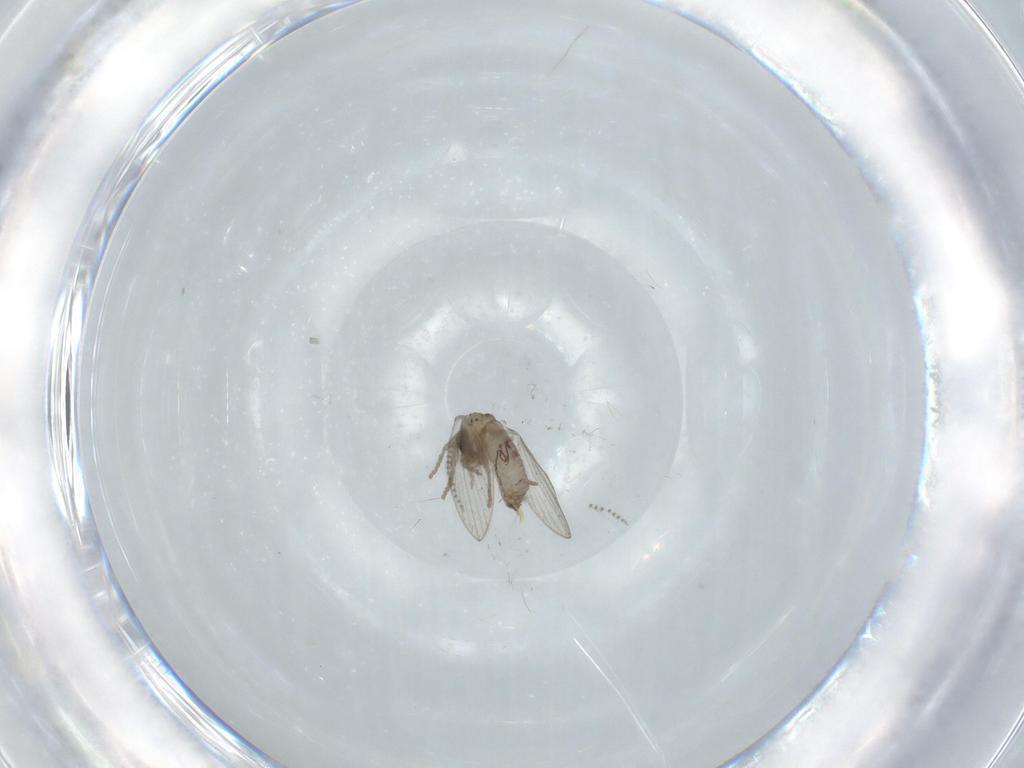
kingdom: Animalia
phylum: Arthropoda
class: Insecta
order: Diptera
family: Psychodidae
